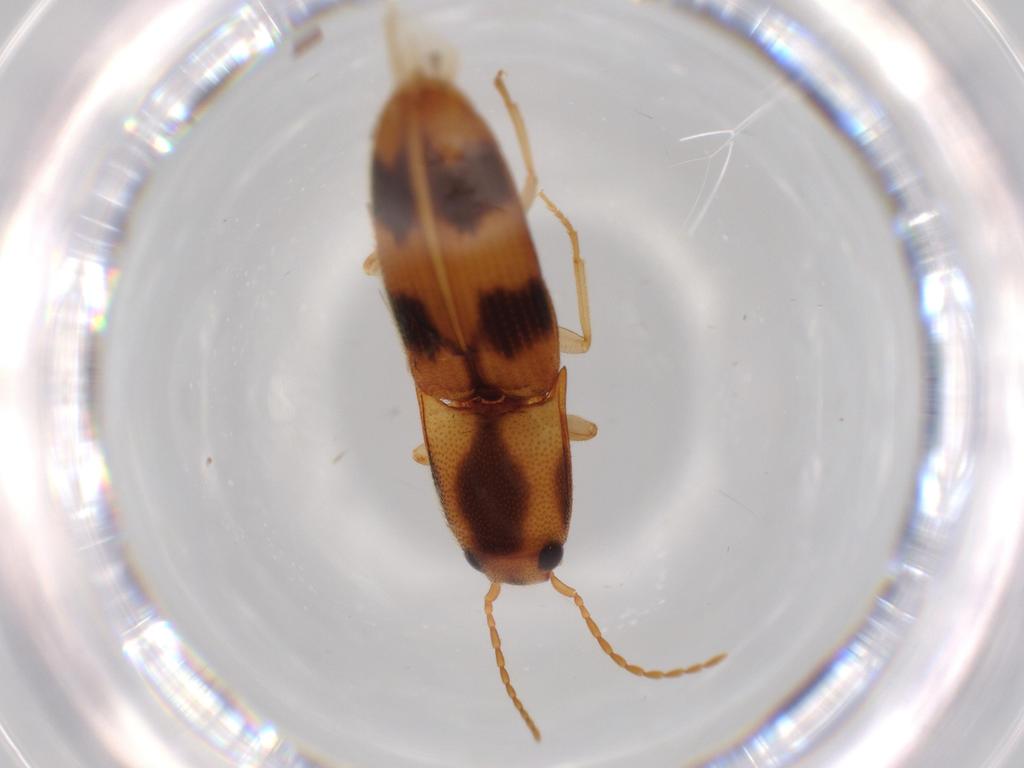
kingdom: Animalia
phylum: Arthropoda
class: Insecta
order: Coleoptera
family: Elateridae
